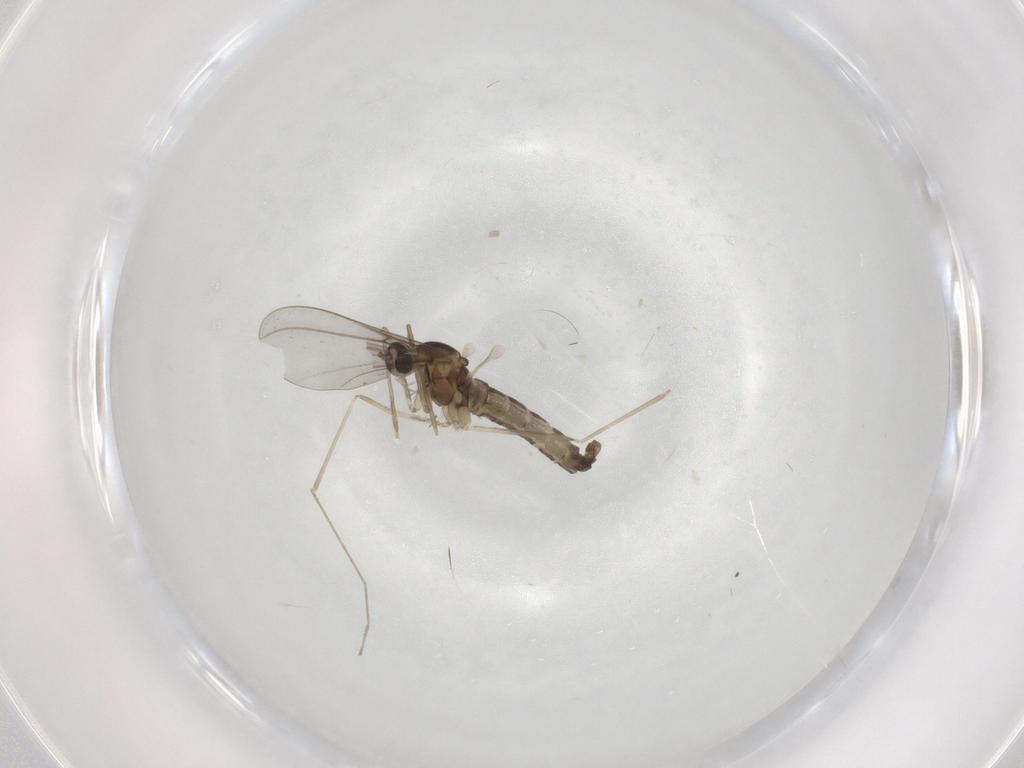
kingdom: Animalia
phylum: Arthropoda
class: Insecta
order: Diptera
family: Cecidomyiidae
